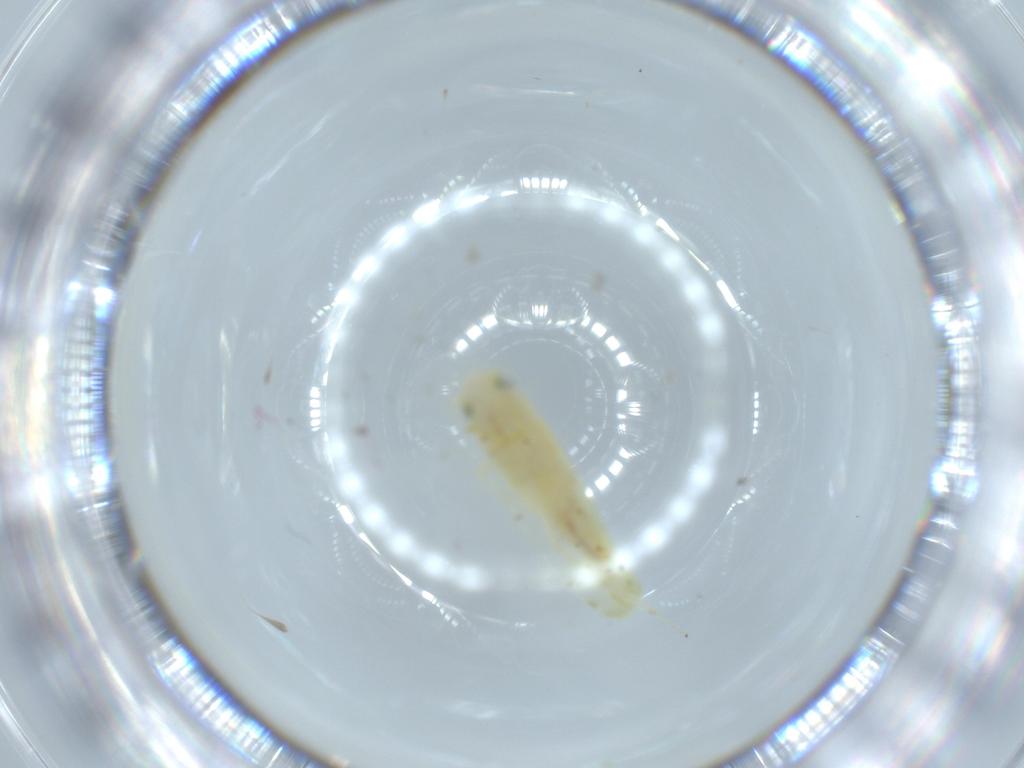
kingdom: Animalia
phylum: Arthropoda
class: Insecta
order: Hemiptera
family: Cicadellidae
